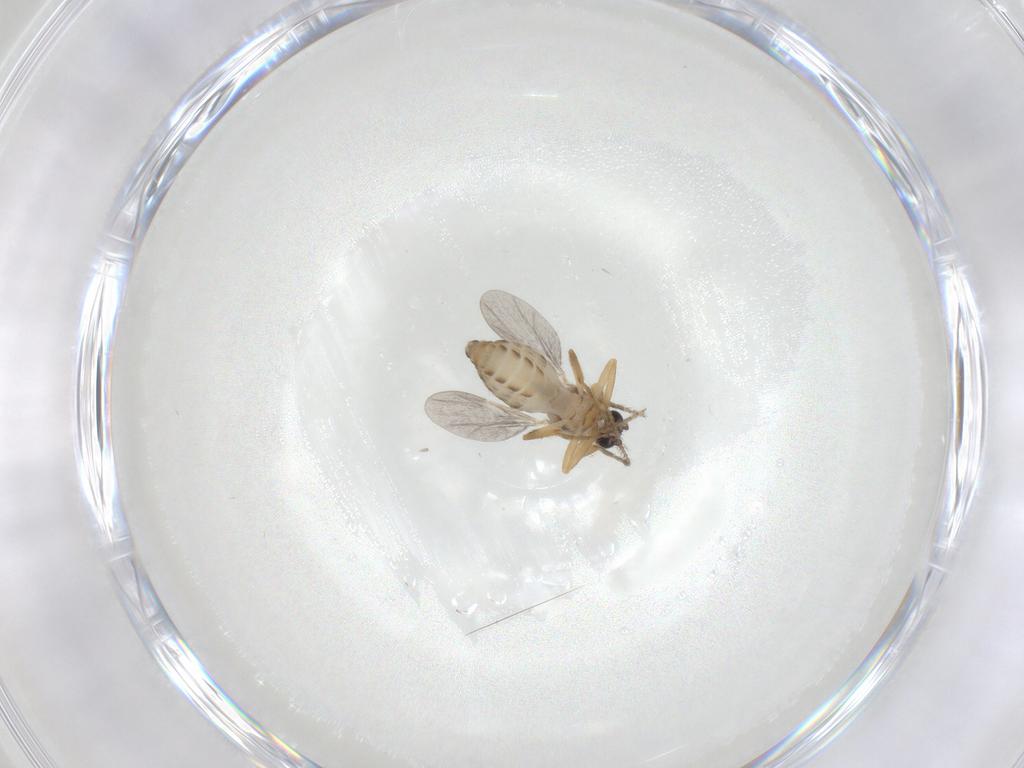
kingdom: Animalia
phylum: Arthropoda
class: Insecta
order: Diptera
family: Ceratopogonidae
